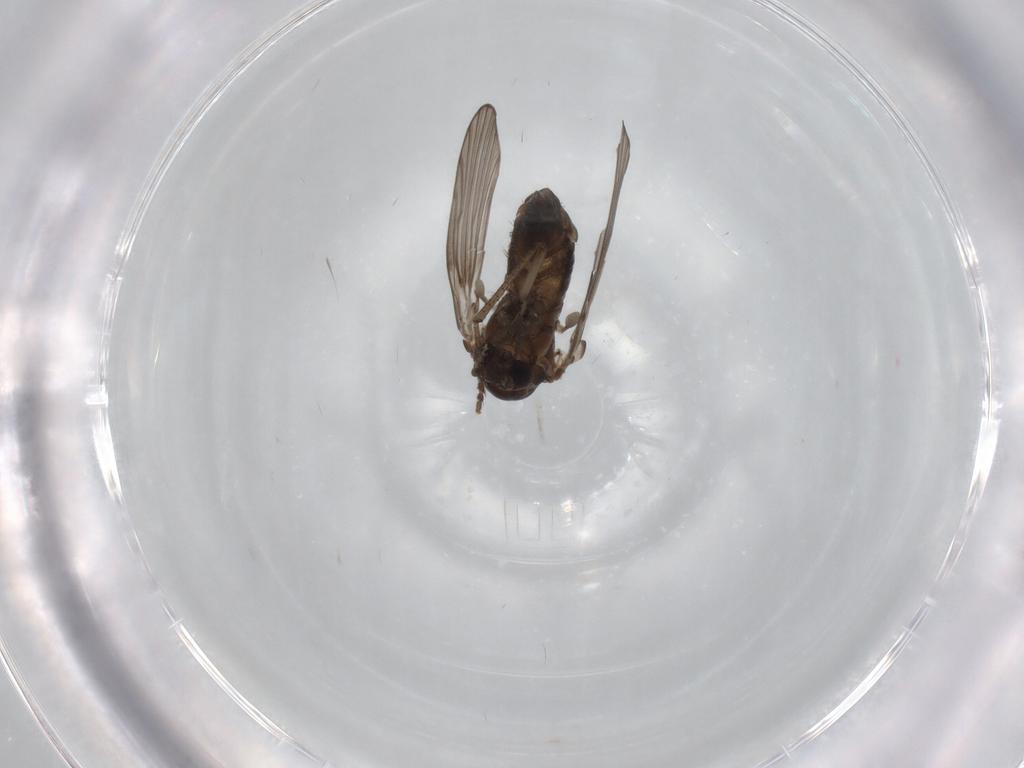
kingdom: Animalia
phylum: Arthropoda
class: Insecta
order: Diptera
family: Psychodidae
